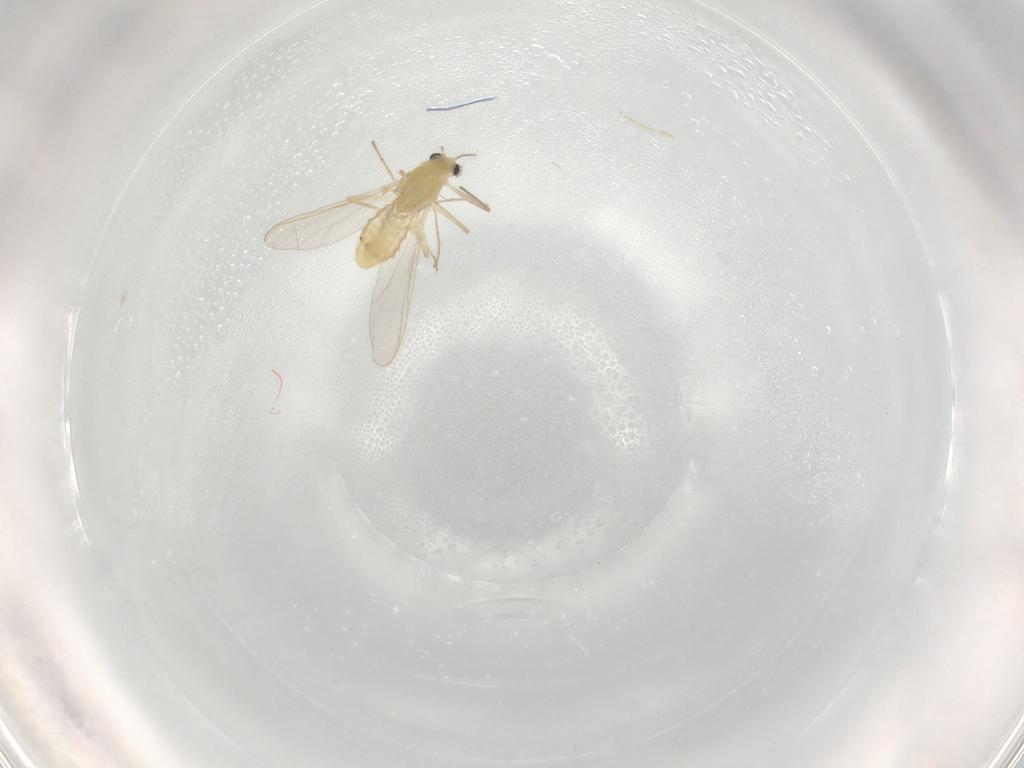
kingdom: Animalia
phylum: Arthropoda
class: Insecta
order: Diptera
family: Chironomidae
